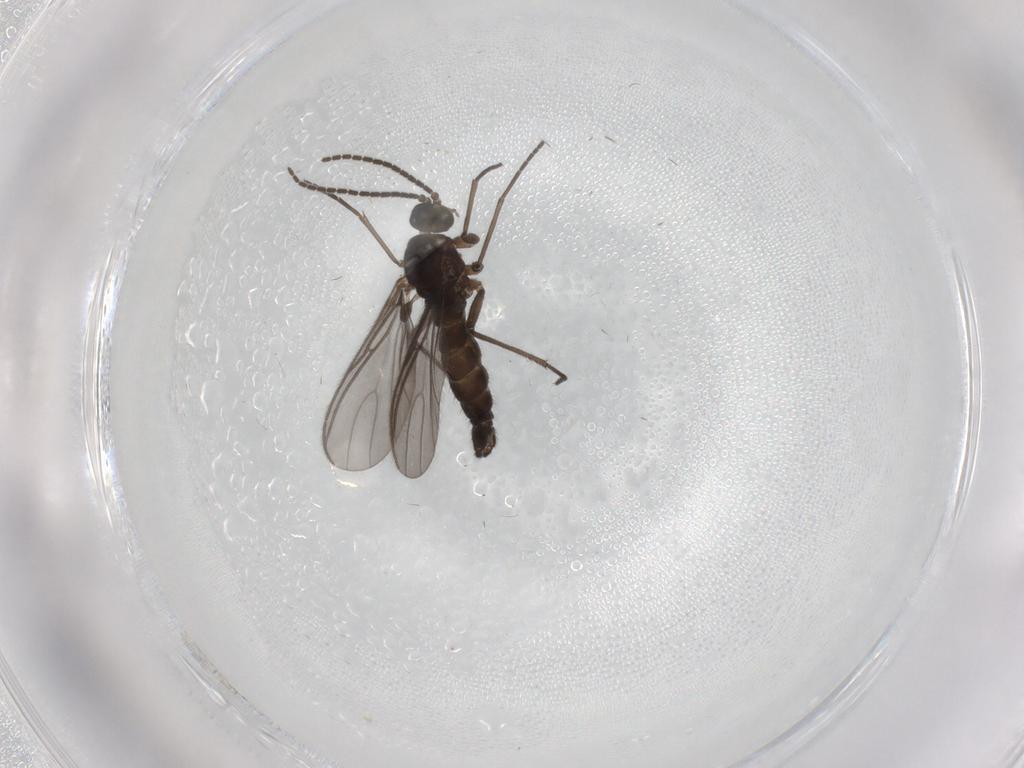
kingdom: Animalia
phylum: Arthropoda
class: Insecta
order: Diptera
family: Sciaridae
